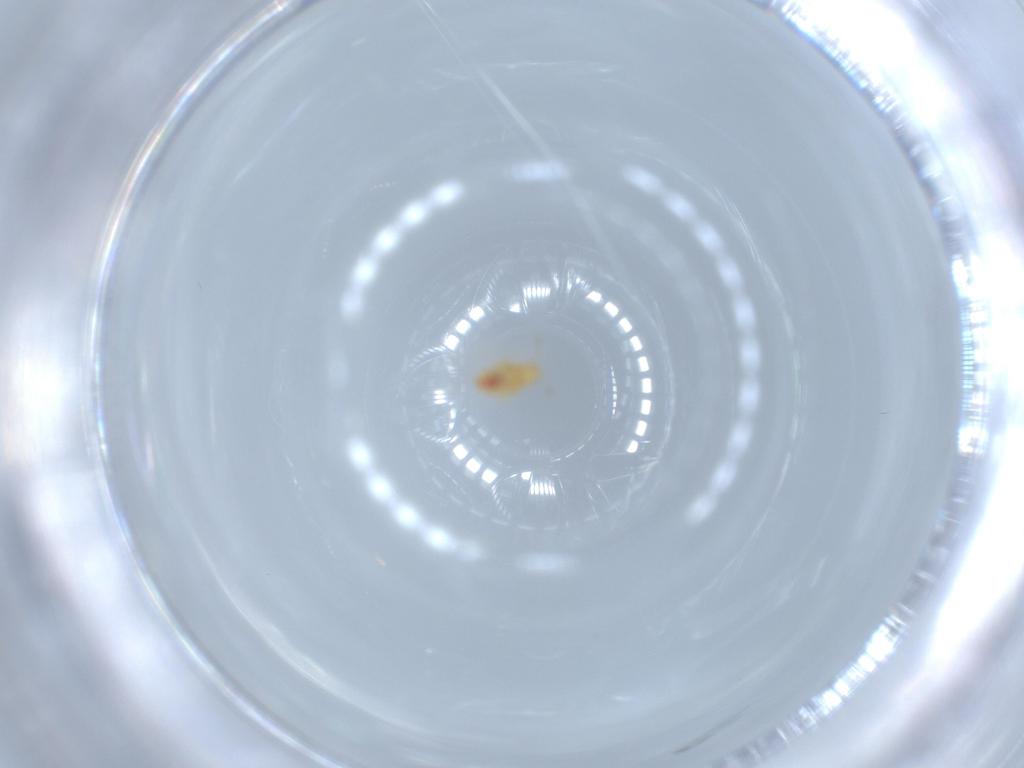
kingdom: Animalia
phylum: Arthropoda
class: Insecta
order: Hemiptera
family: Anthocoridae
